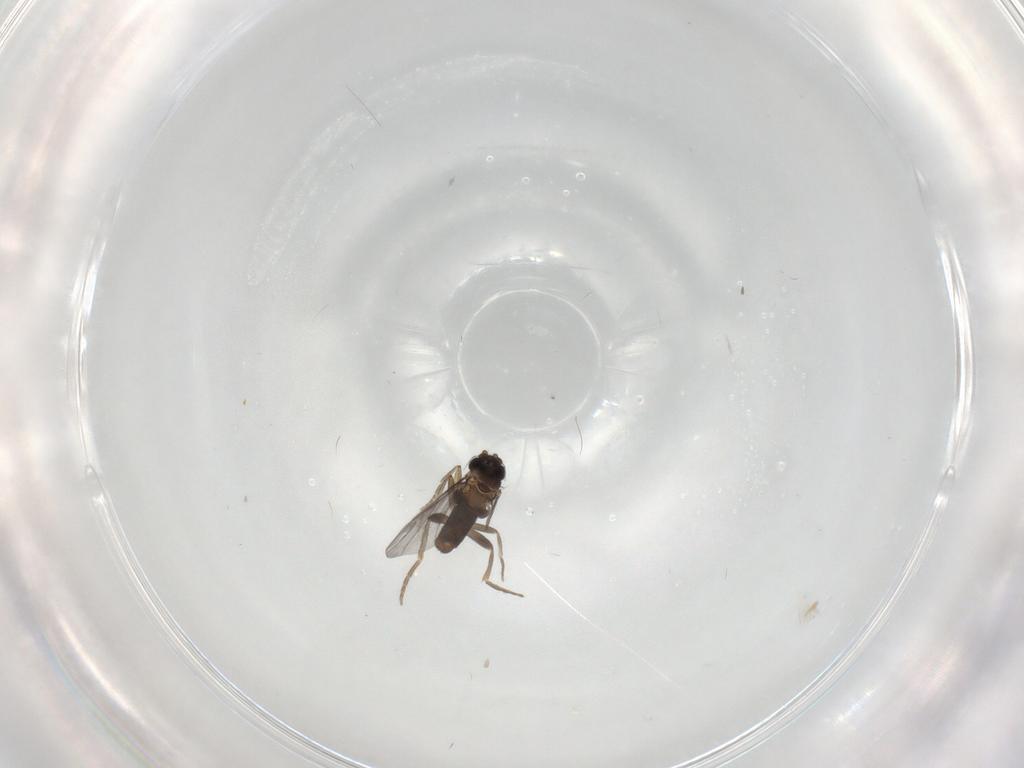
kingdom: Animalia
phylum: Arthropoda
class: Insecta
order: Diptera
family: Phoridae
